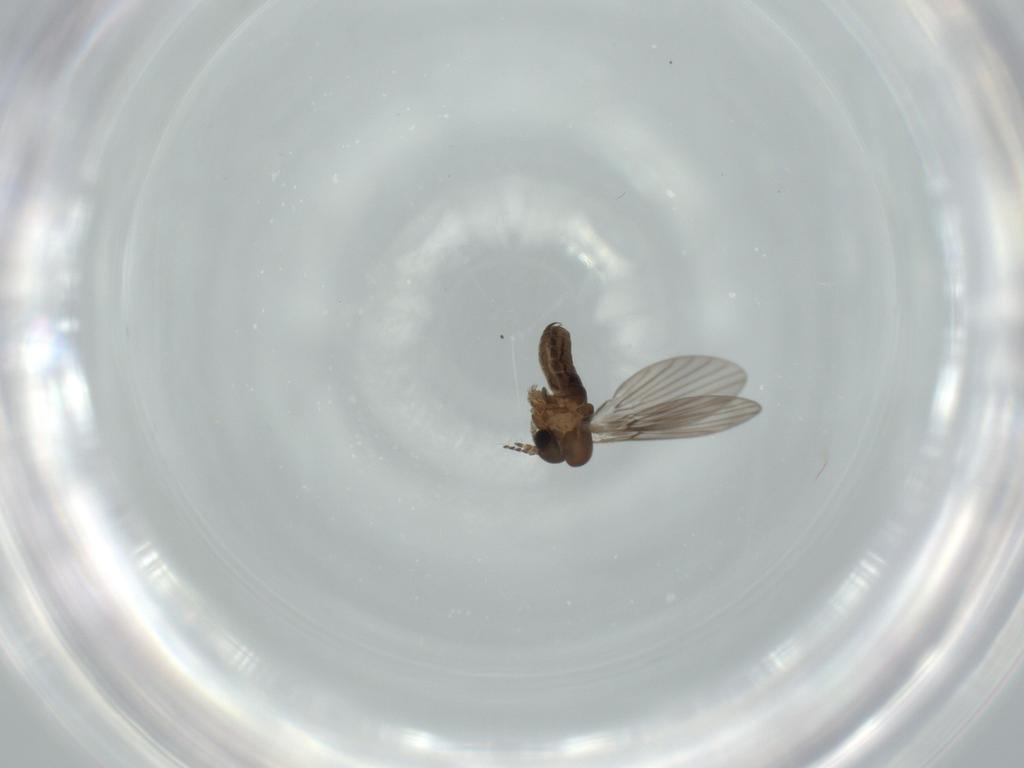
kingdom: Animalia
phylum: Arthropoda
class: Insecta
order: Diptera
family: Psychodidae
